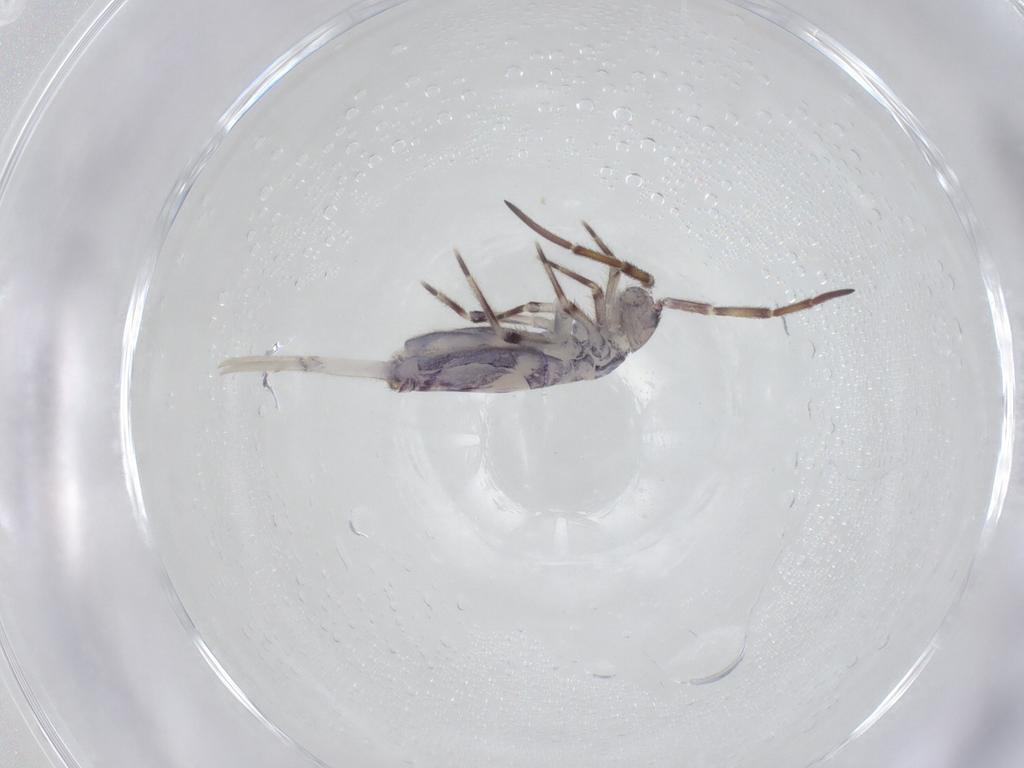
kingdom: Animalia
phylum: Arthropoda
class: Collembola
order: Entomobryomorpha
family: Entomobryidae
